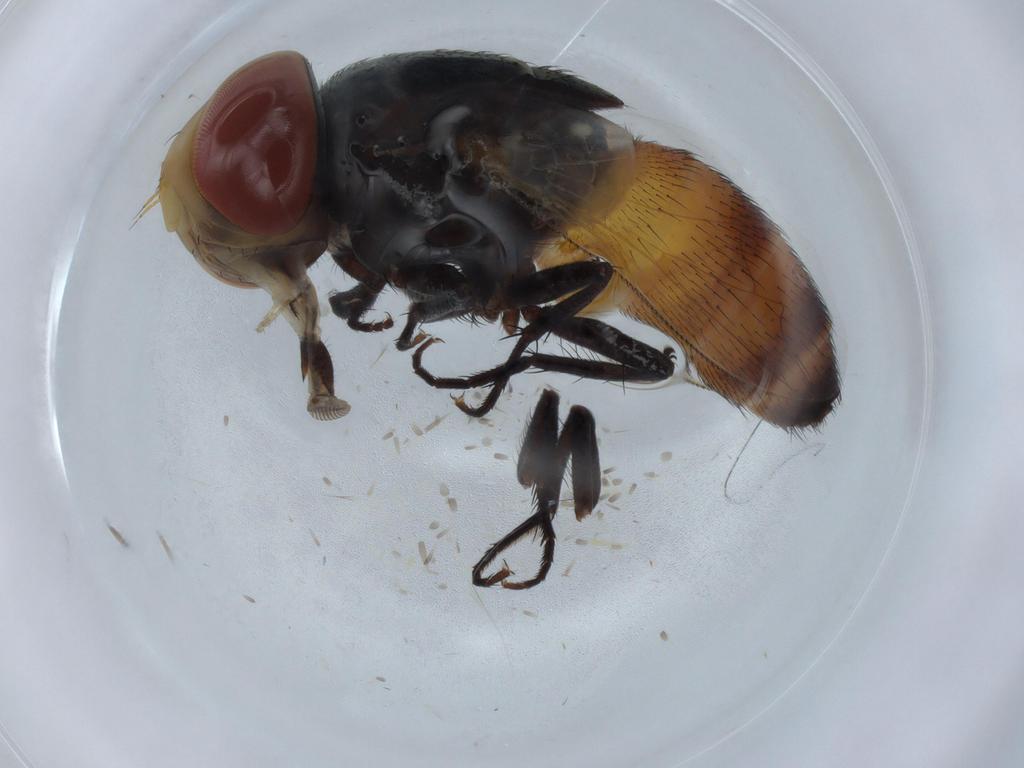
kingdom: Animalia
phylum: Arthropoda
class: Insecta
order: Diptera
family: Sarcophagidae
